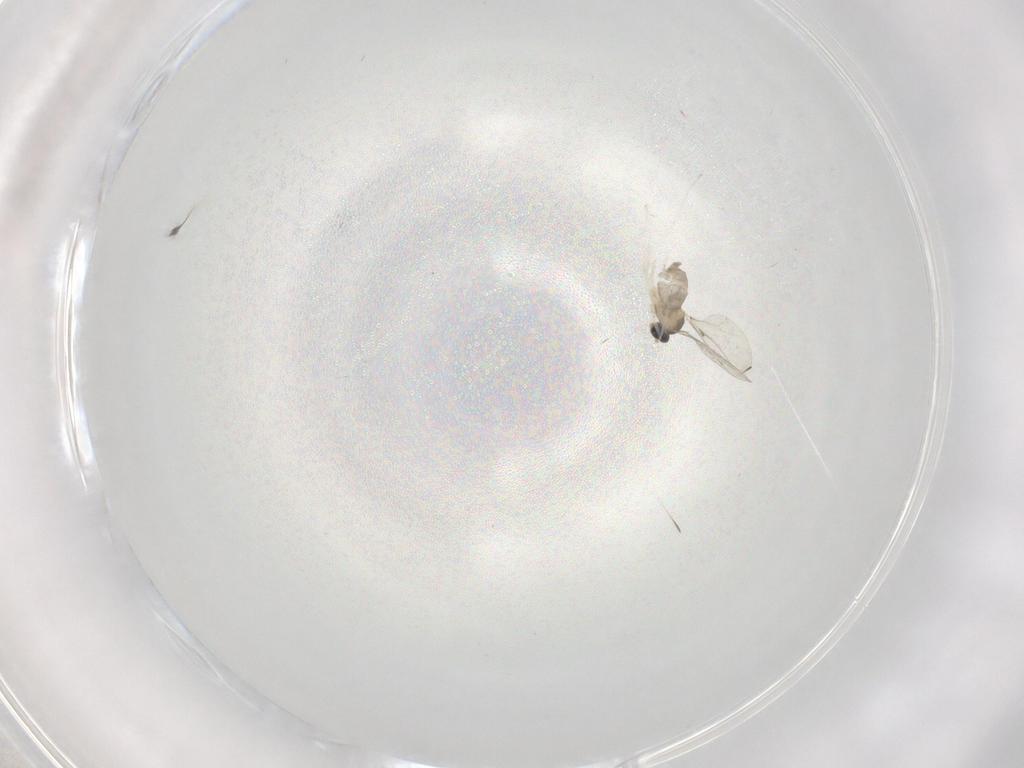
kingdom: Animalia
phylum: Arthropoda
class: Insecta
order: Diptera
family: Cecidomyiidae
